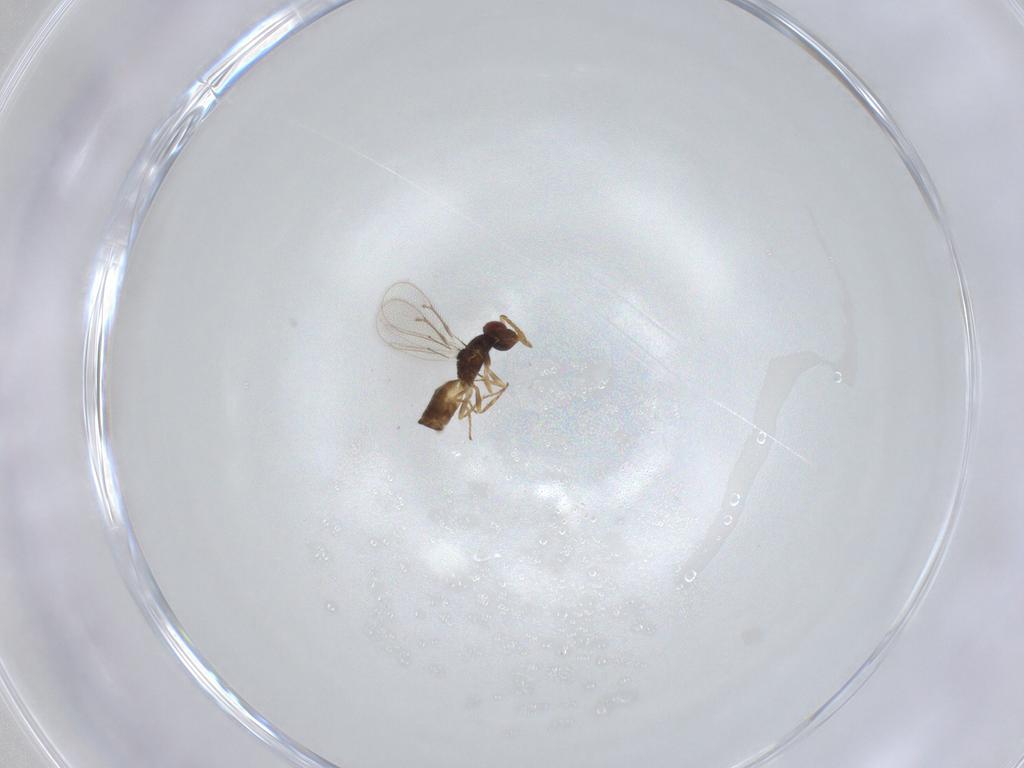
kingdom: Animalia
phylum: Arthropoda
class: Insecta
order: Hymenoptera
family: Eulophidae
